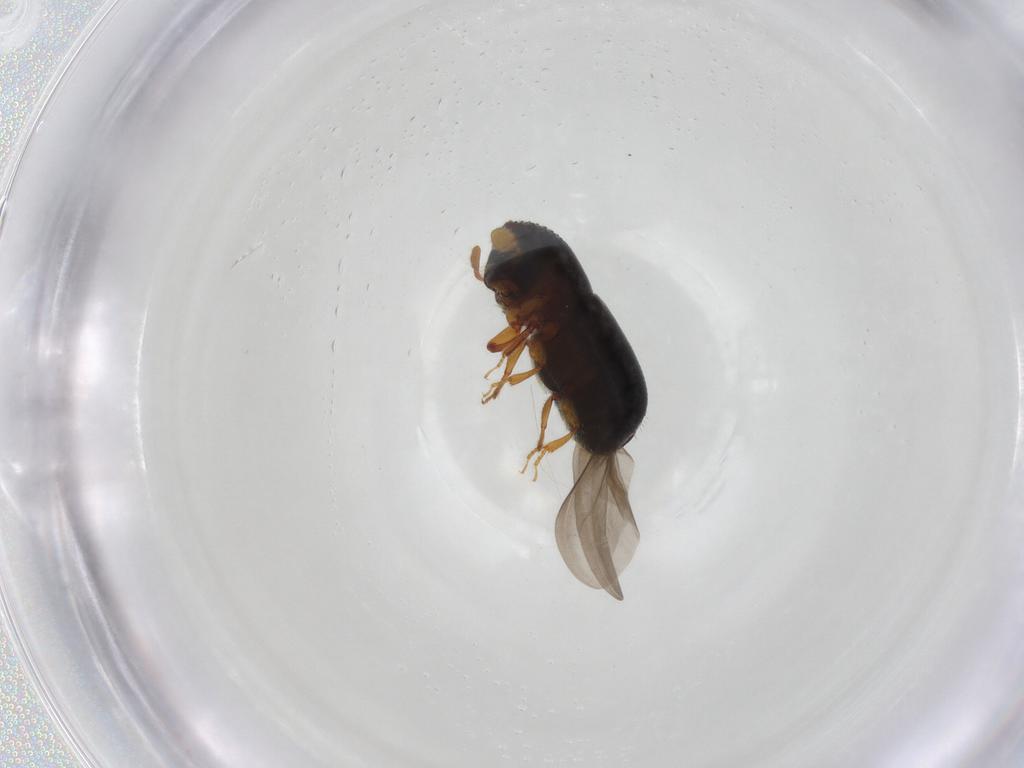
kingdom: Animalia
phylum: Arthropoda
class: Insecta
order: Coleoptera
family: Curculionidae
